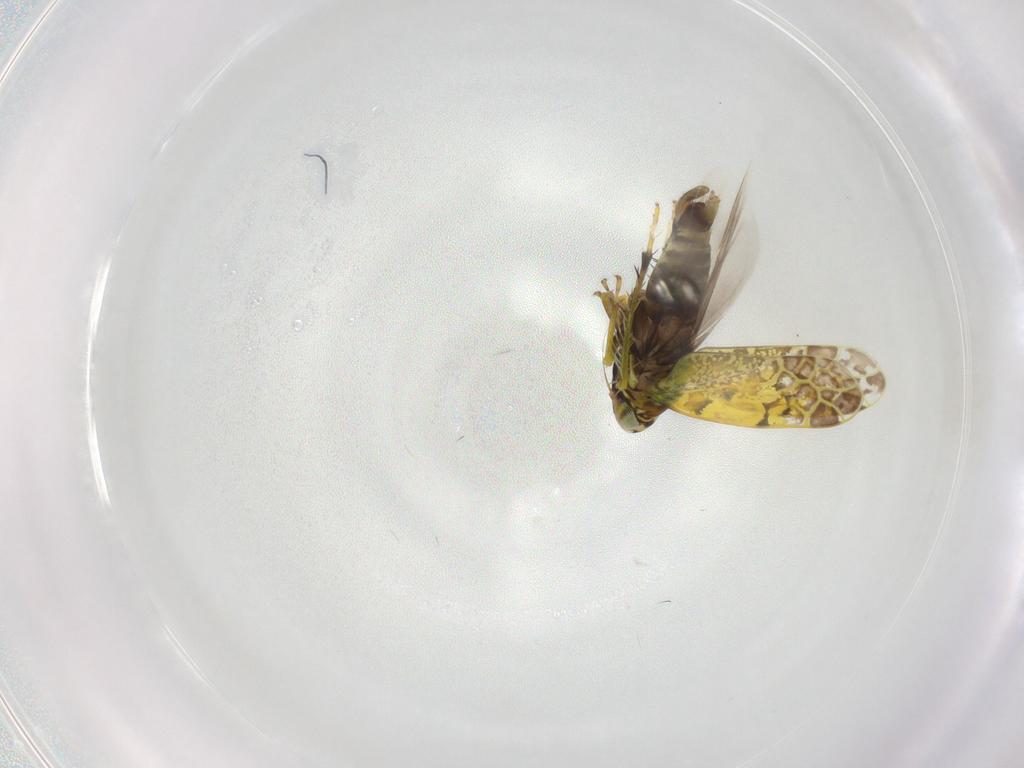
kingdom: Animalia
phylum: Arthropoda
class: Insecta
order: Hemiptera
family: Cicadellidae
